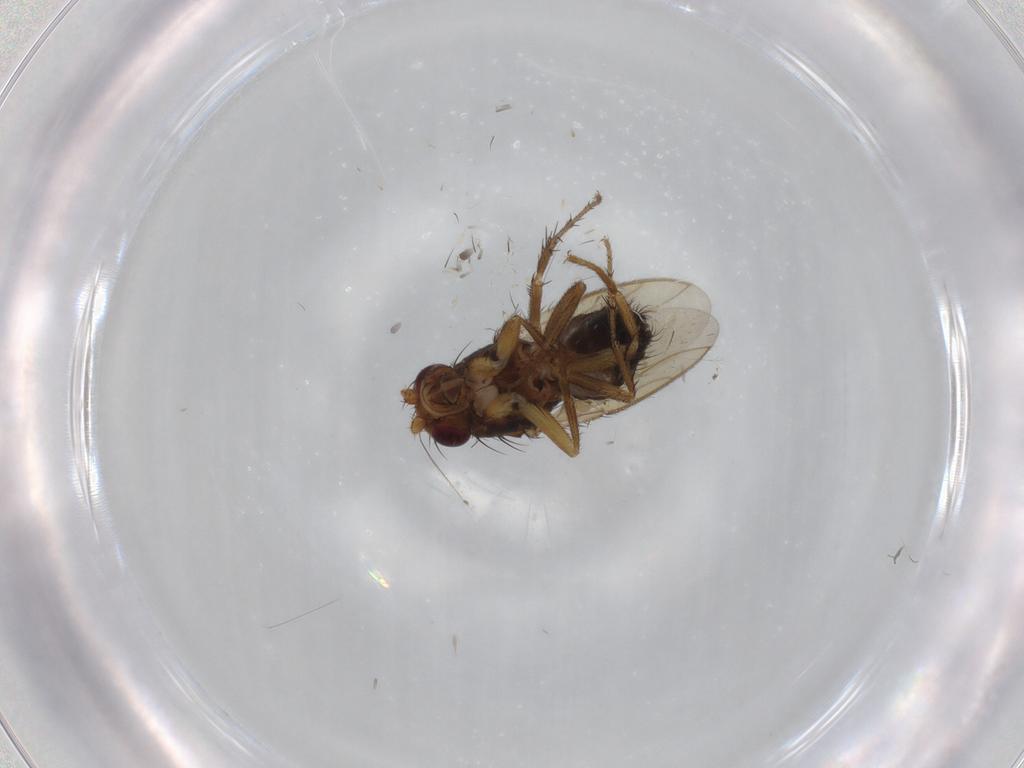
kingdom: Animalia
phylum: Arthropoda
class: Insecta
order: Diptera
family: Sphaeroceridae
